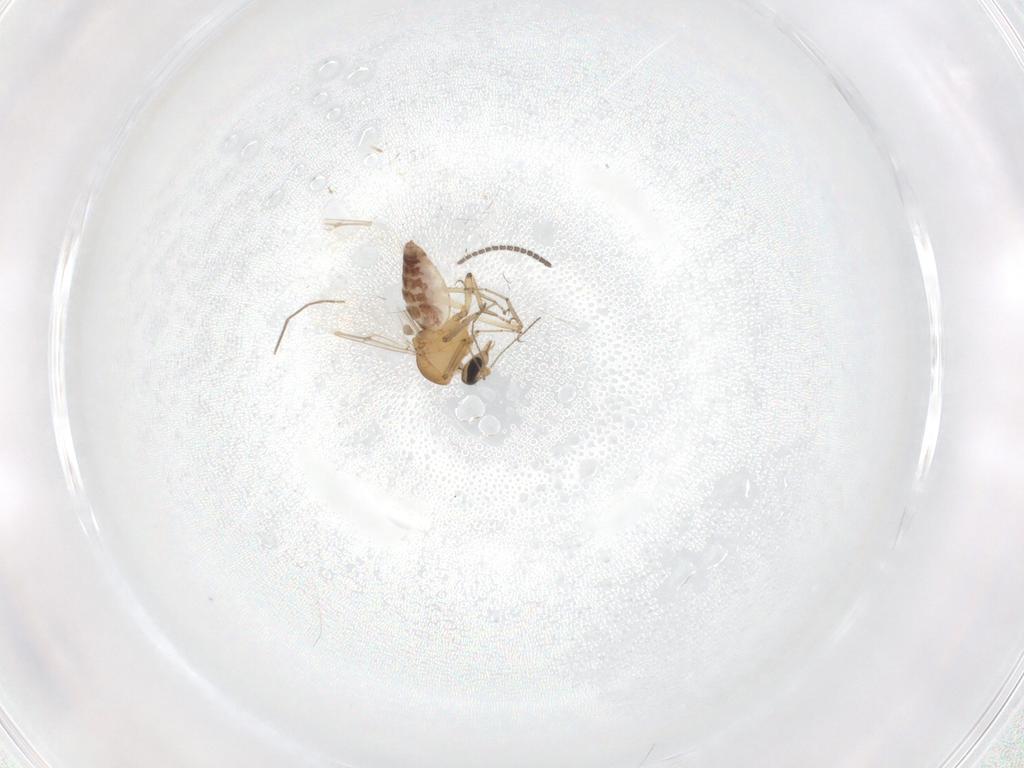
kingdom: Animalia
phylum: Arthropoda
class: Insecta
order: Diptera
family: Ceratopogonidae
